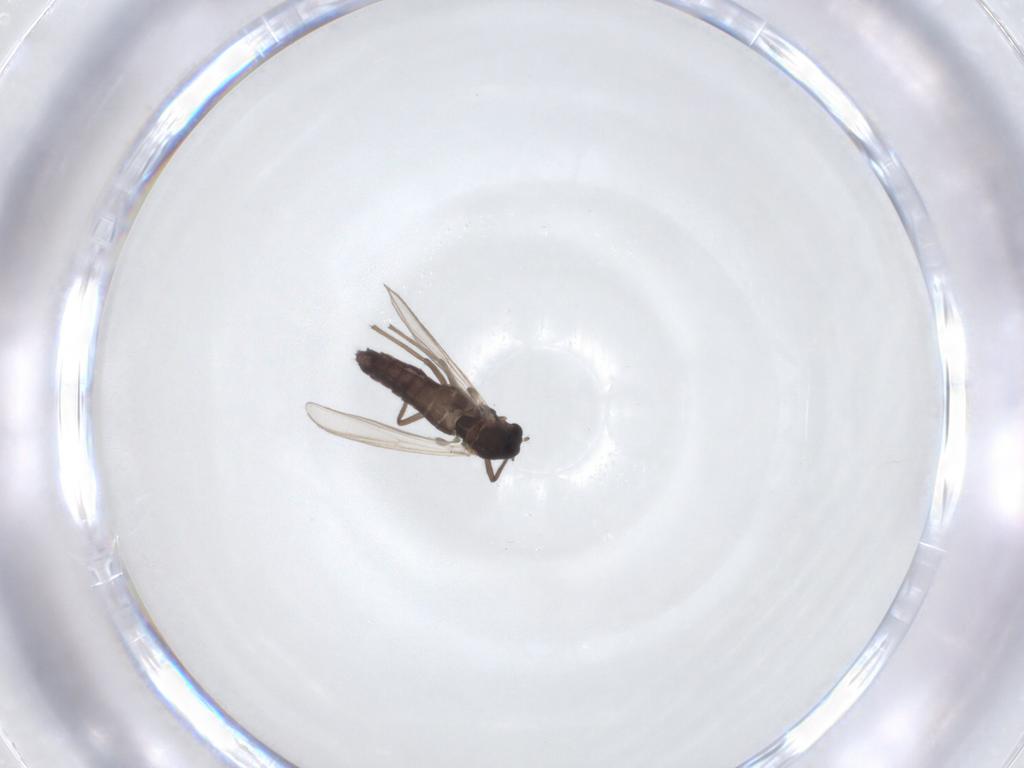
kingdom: Animalia
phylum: Arthropoda
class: Insecta
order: Diptera
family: Chironomidae
